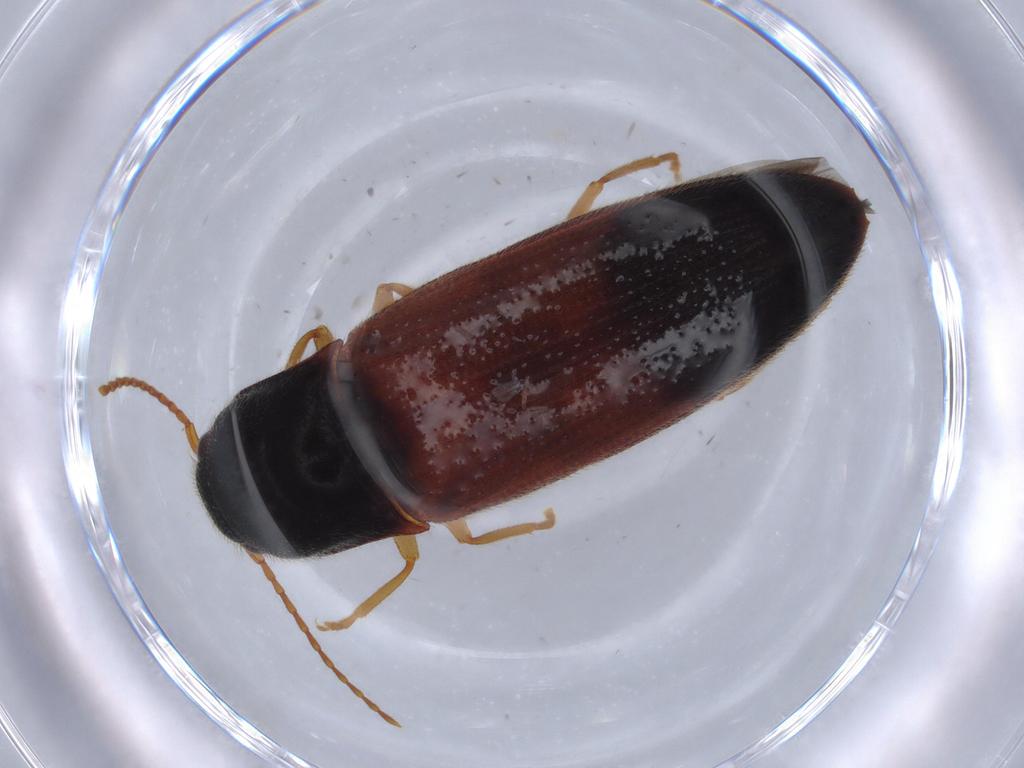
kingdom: Animalia
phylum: Arthropoda
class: Insecta
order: Coleoptera
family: Elateridae
